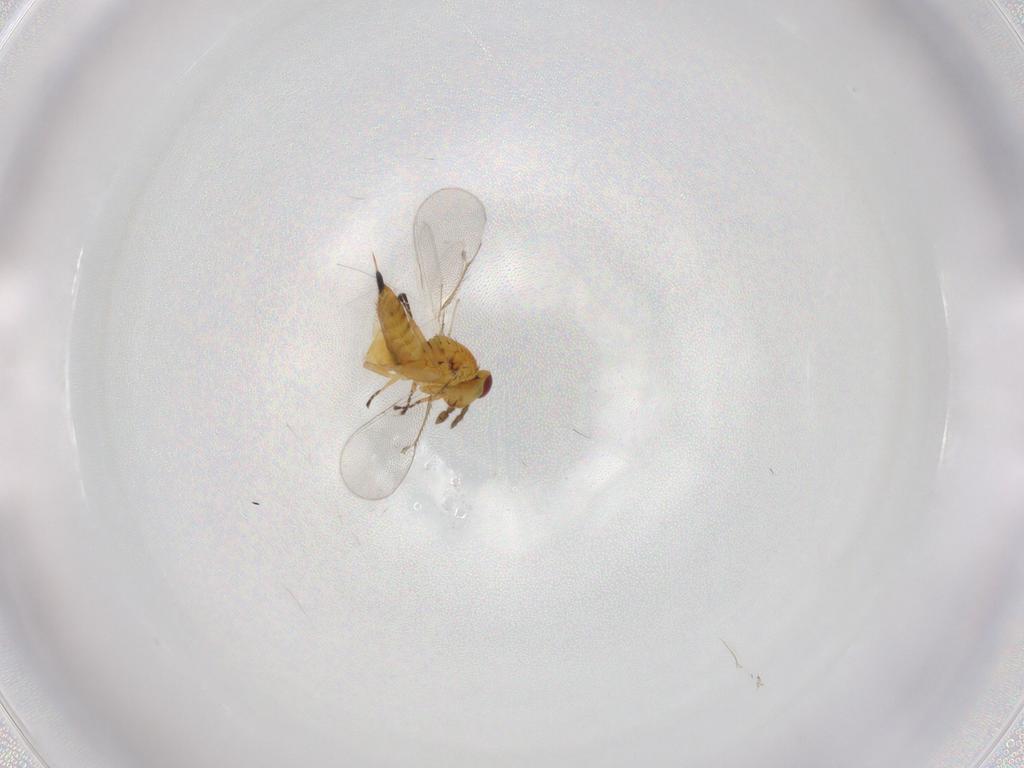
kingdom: Animalia
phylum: Arthropoda
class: Insecta
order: Hymenoptera
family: Eulophidae
